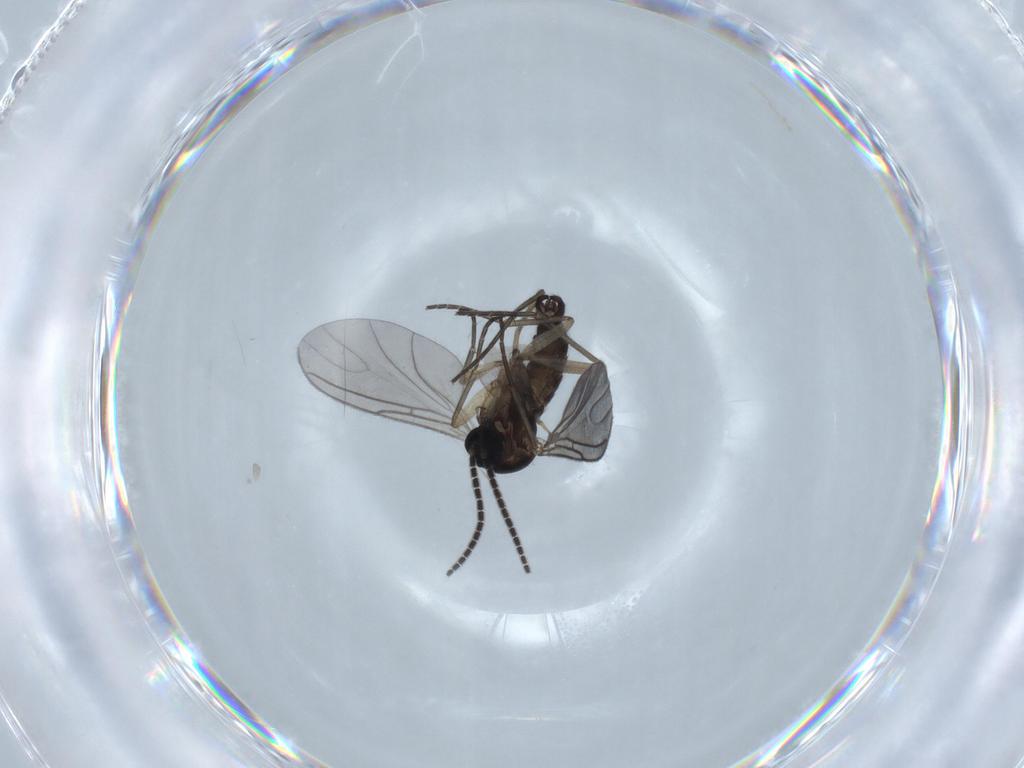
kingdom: Animalia
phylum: Arthropoda
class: Insecta
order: Diptera
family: Sciaridae
